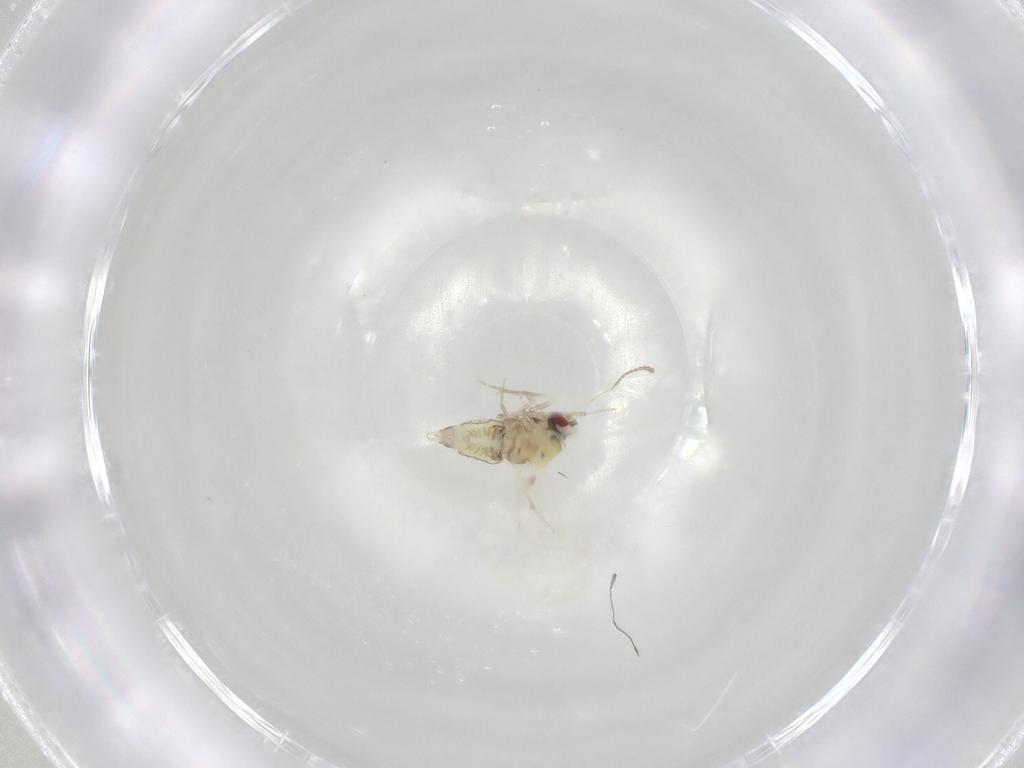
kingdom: Animalia
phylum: Arthropoda
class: Insecta
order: Hemiptera
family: Aleyrodidae
